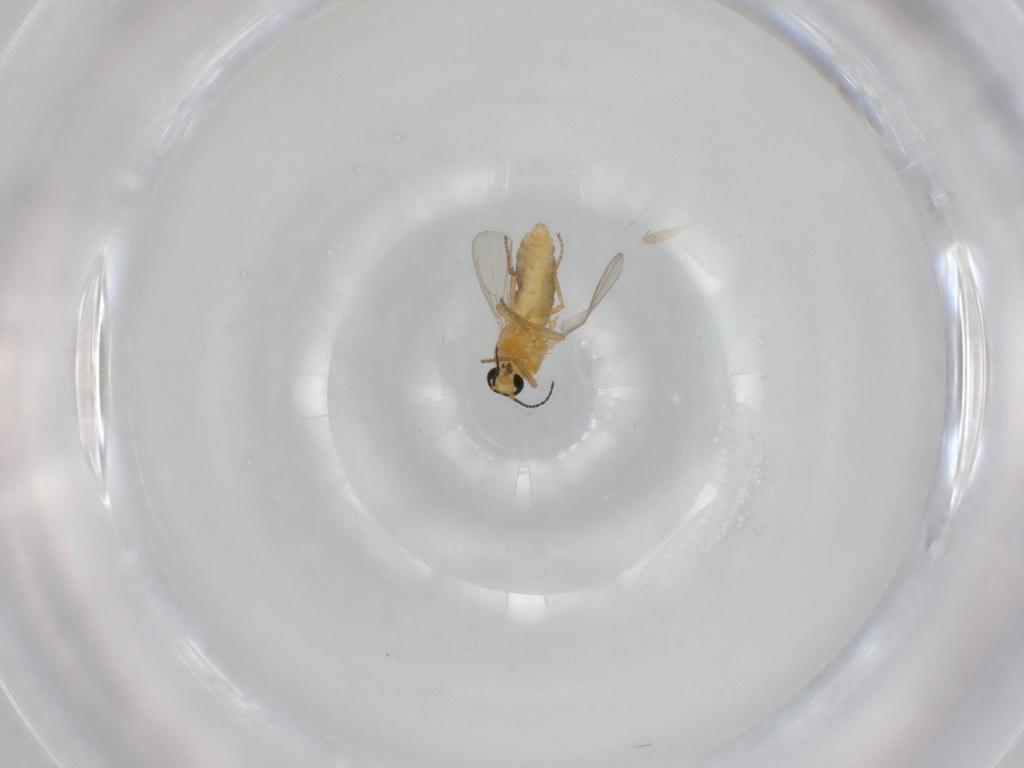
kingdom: Animalia
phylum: Arthropoda
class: Insecta
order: Diptera
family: Ceratopogonidae
